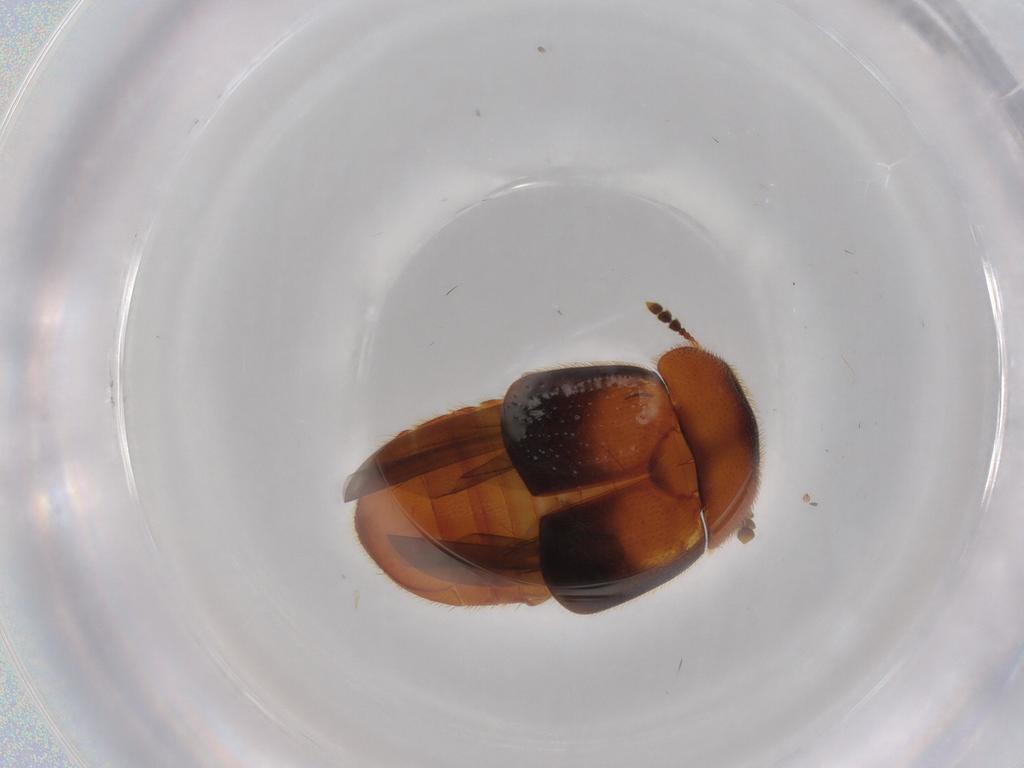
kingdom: Animalia
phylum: Arthropoda
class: Insecta
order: Coleoptera
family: Nitidulidae
